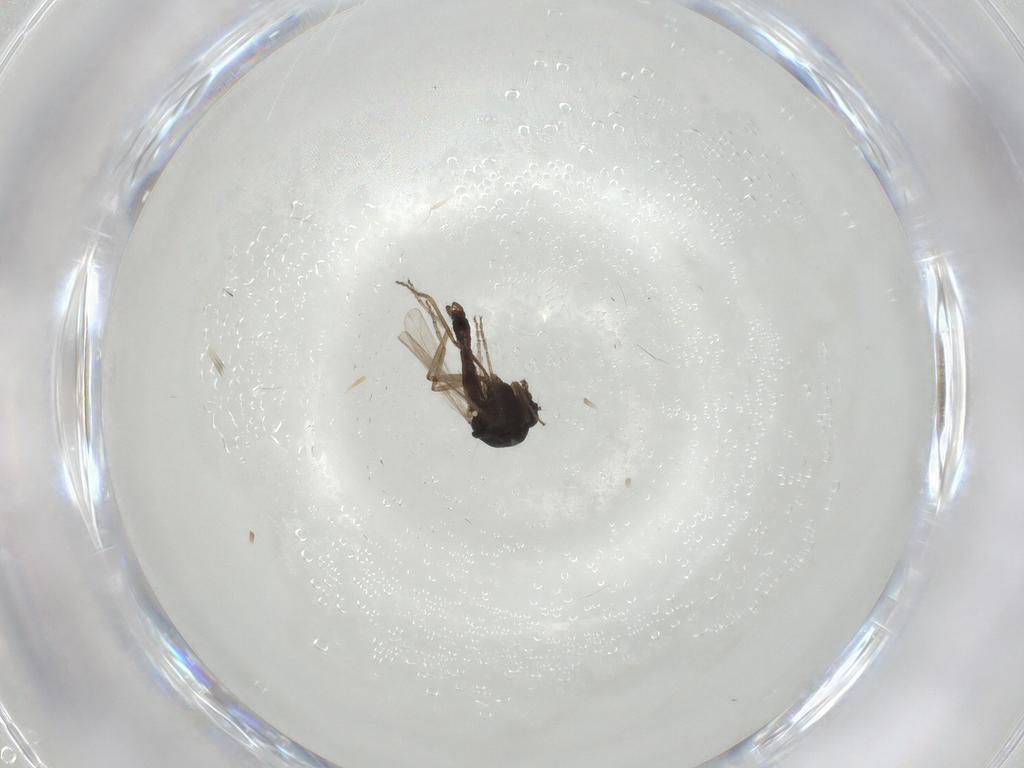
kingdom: Animalia
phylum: Arthropoda
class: Insecta
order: Diptera
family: Ceratopogonidae
